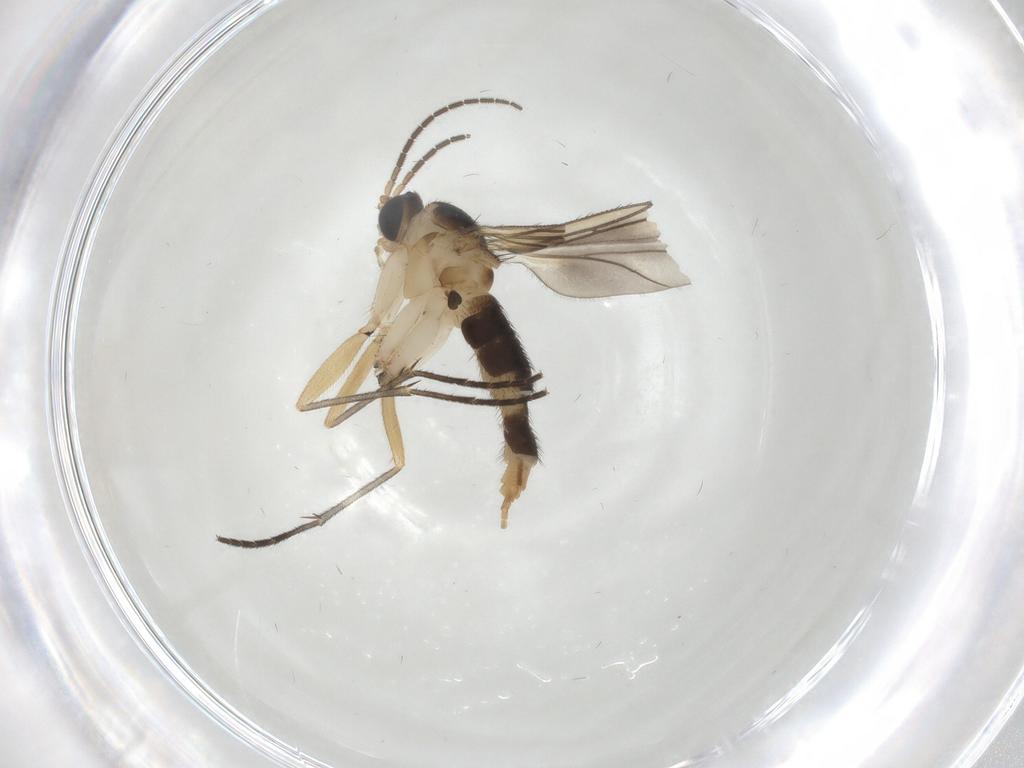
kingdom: Animalia
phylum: Arthropoda
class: Insecta
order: Diptera
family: Sciaridae
